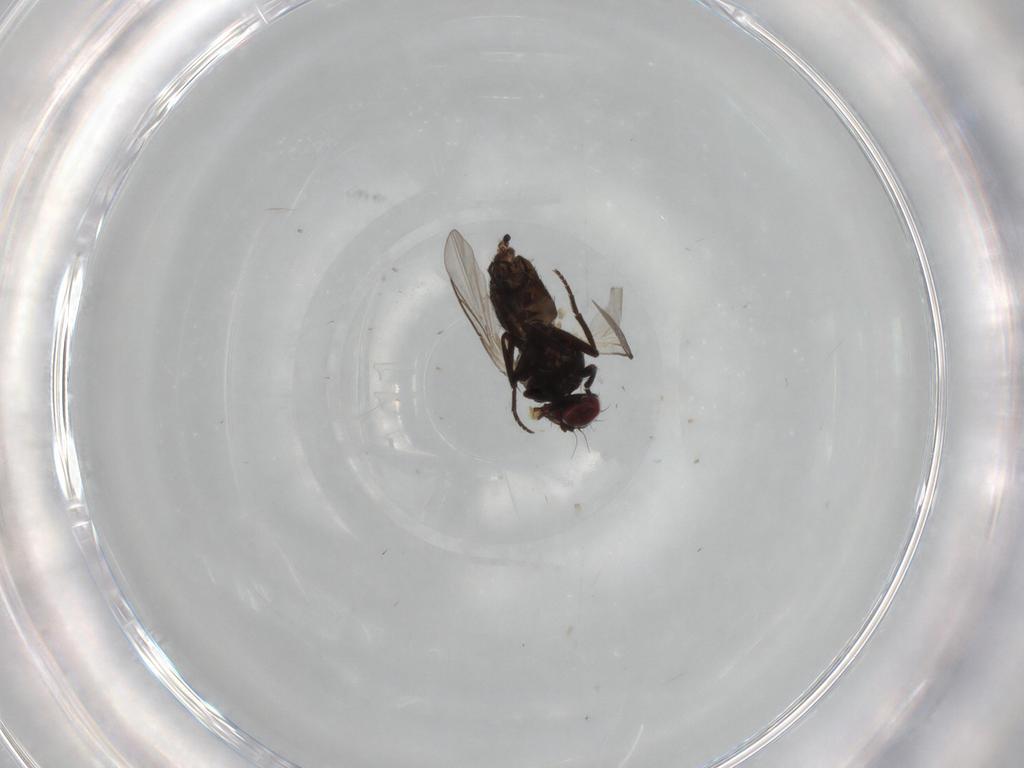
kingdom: Animalia
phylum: Arthropoda
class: Insecta
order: Diptera
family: Agromyzidae
